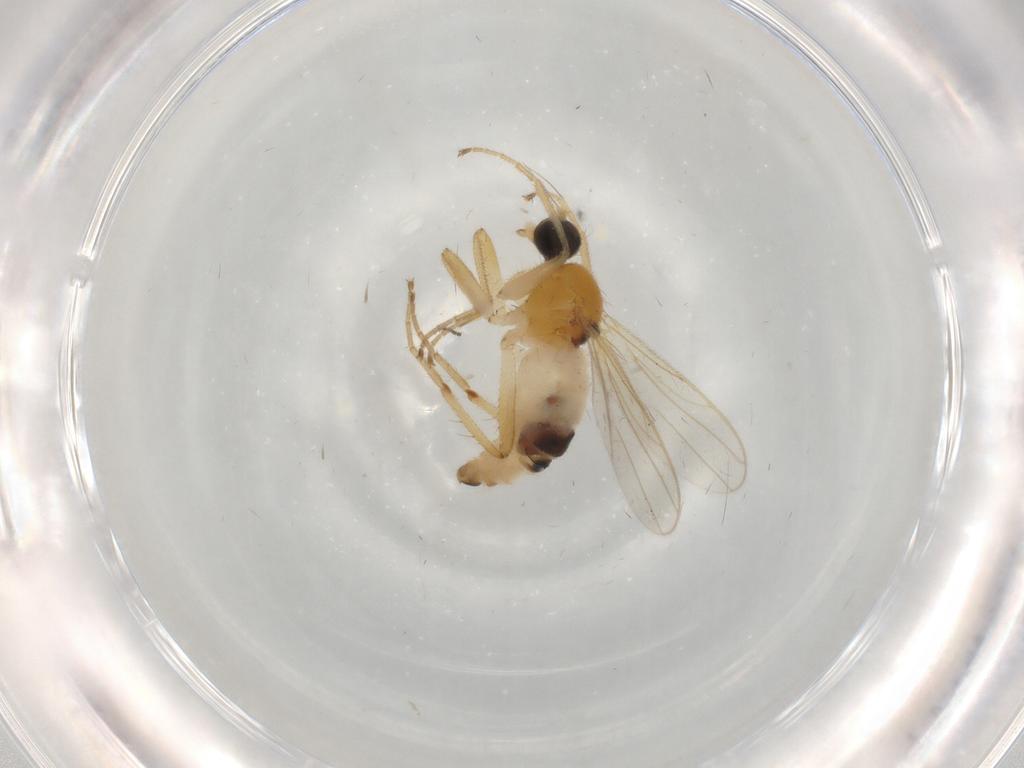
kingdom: Animalia
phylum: Arthropoda
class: Insecta
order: Diptera
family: Hybotidae
